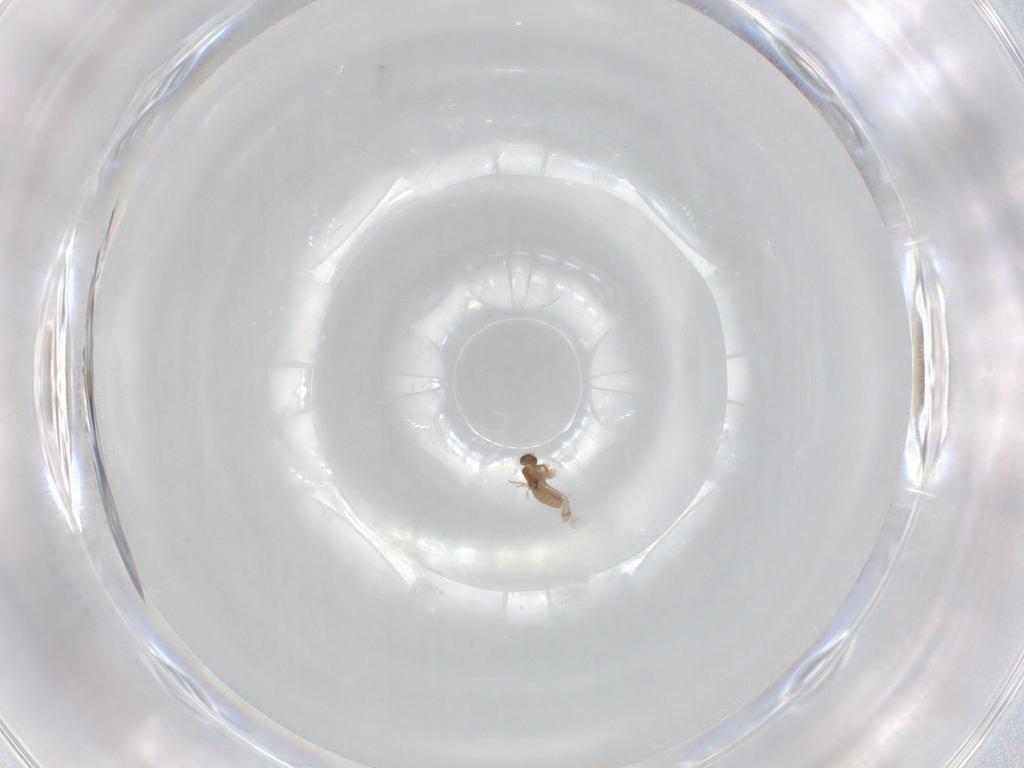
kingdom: Animalia
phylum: Arthropoda
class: Insecta
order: Diptera
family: Cecidomyiidae
